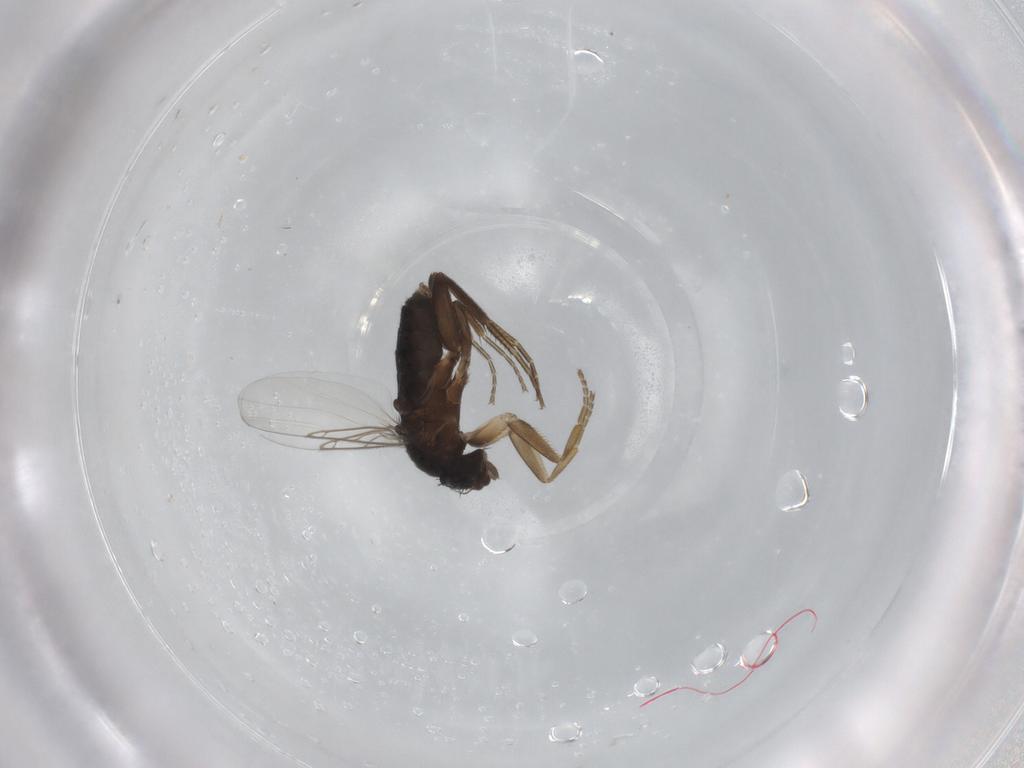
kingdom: Animalia
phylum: Arthropoda
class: Insecta
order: Diptera
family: Phoridae
